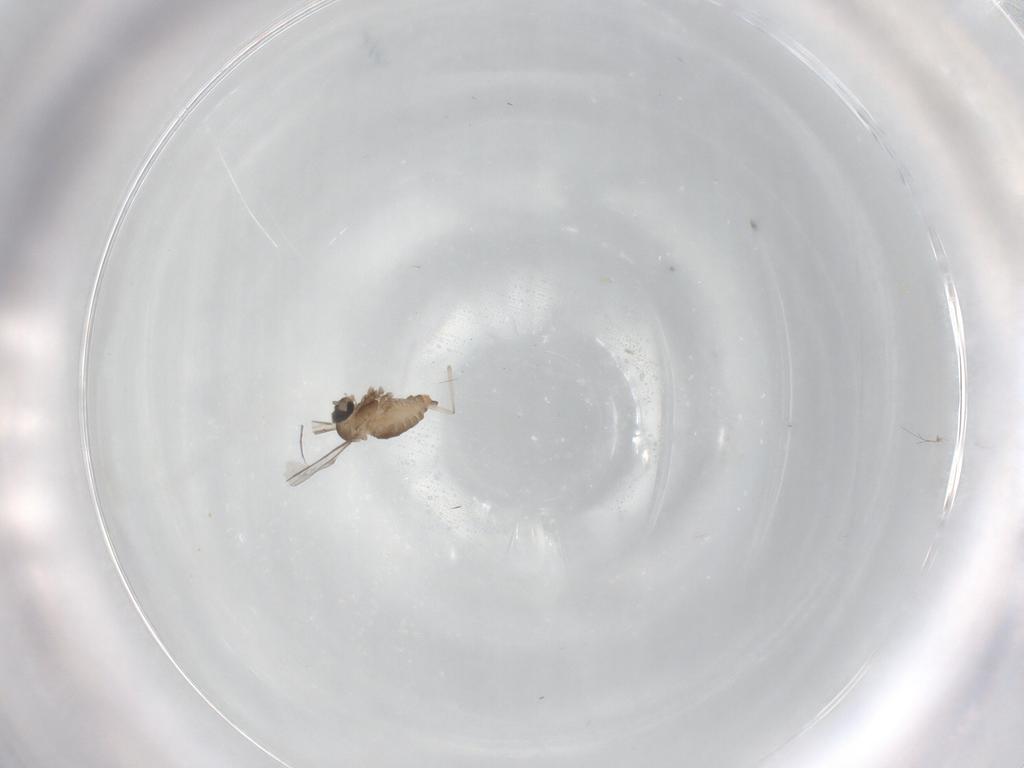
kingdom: Animalia
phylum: Arthropoda
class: Insecta
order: Diptera
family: Cecidomyiidae
